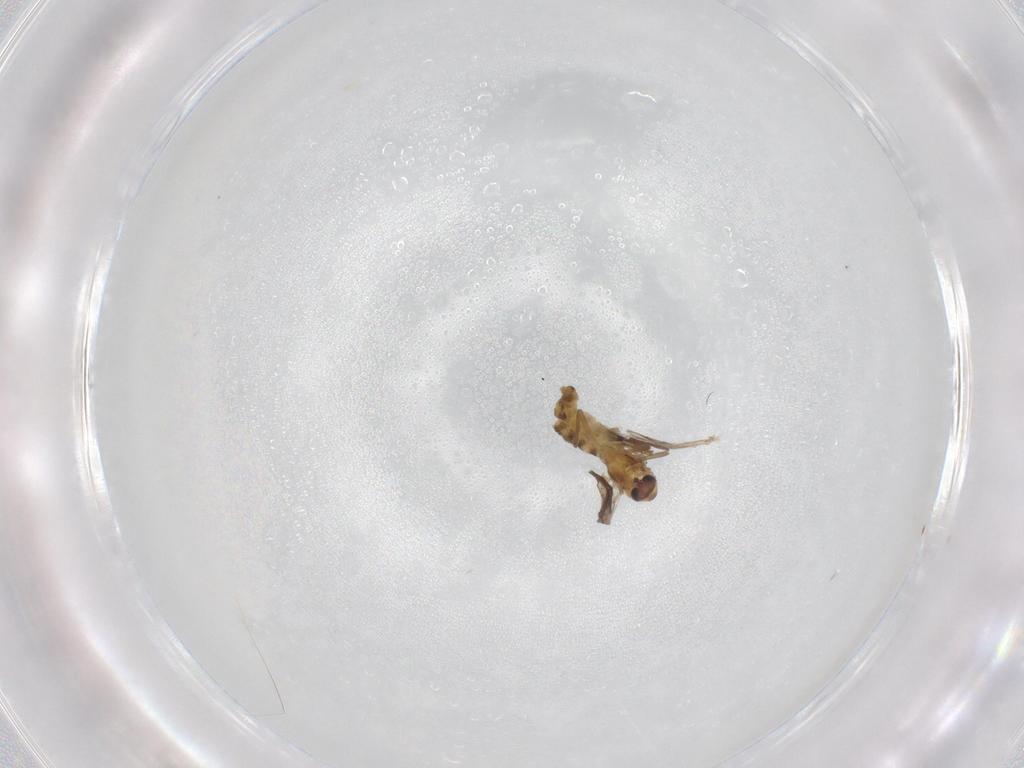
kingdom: Animalia
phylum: Arthropoda
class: Insecta
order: Diptera
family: Chironomidae
